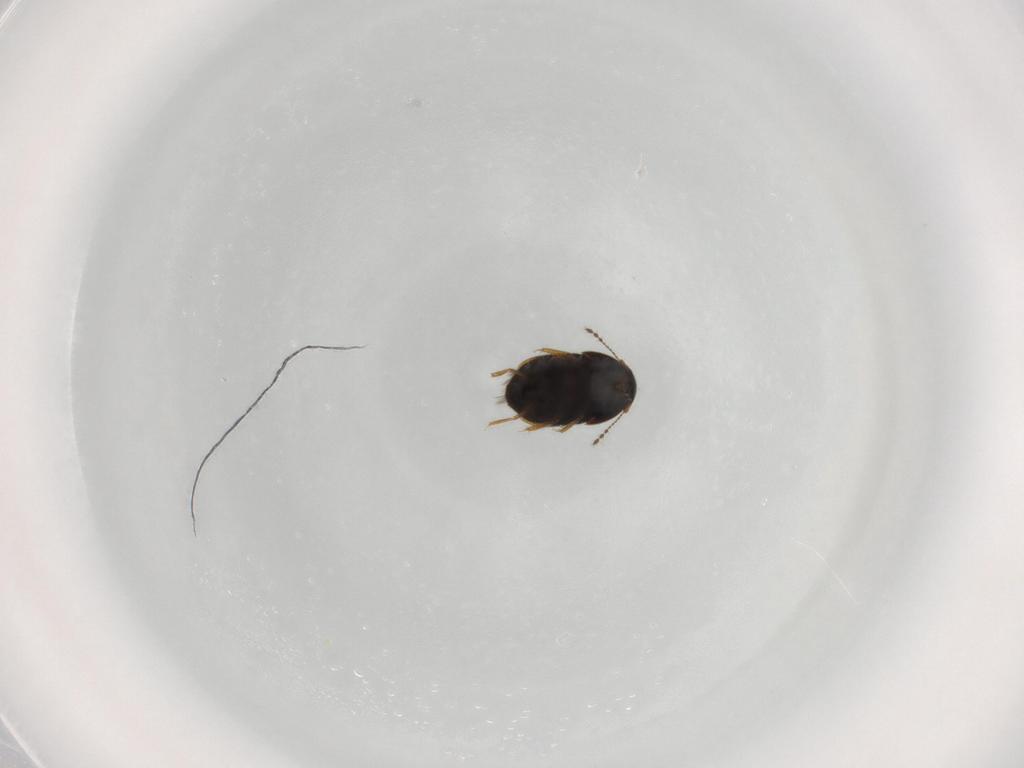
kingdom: Animalia
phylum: Arthropoda
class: Insecta
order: Coleoptera
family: Ptiliidae
